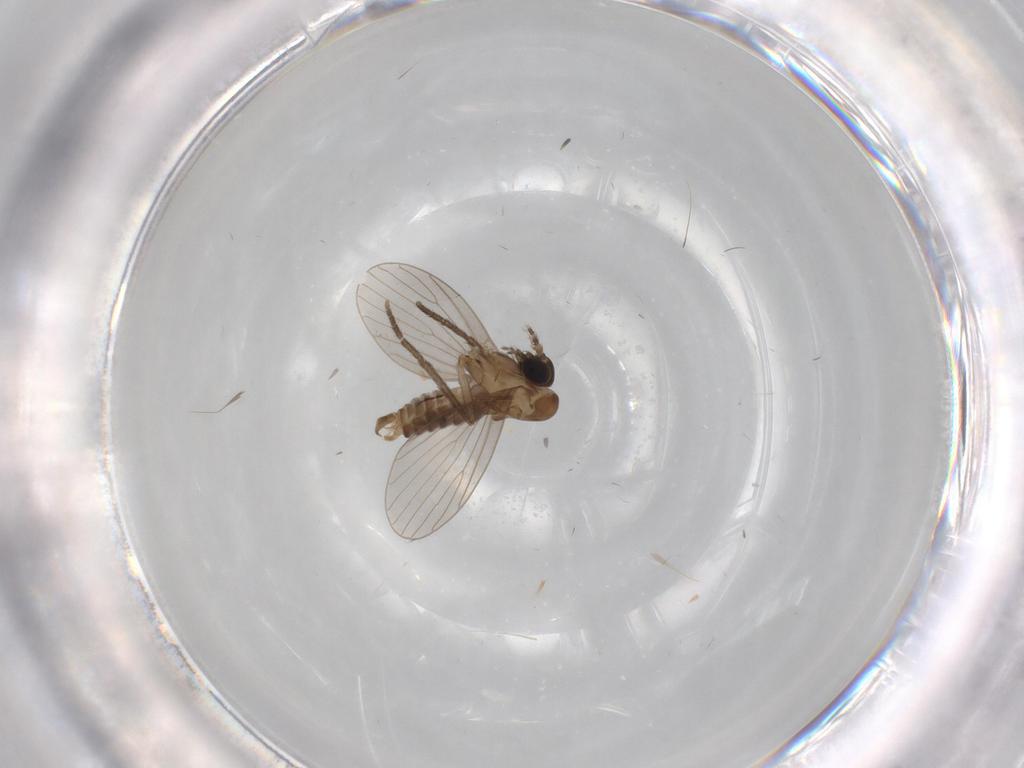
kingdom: Animalia
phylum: Arthropoda
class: Insecta
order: Diptera
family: Psychodidae
